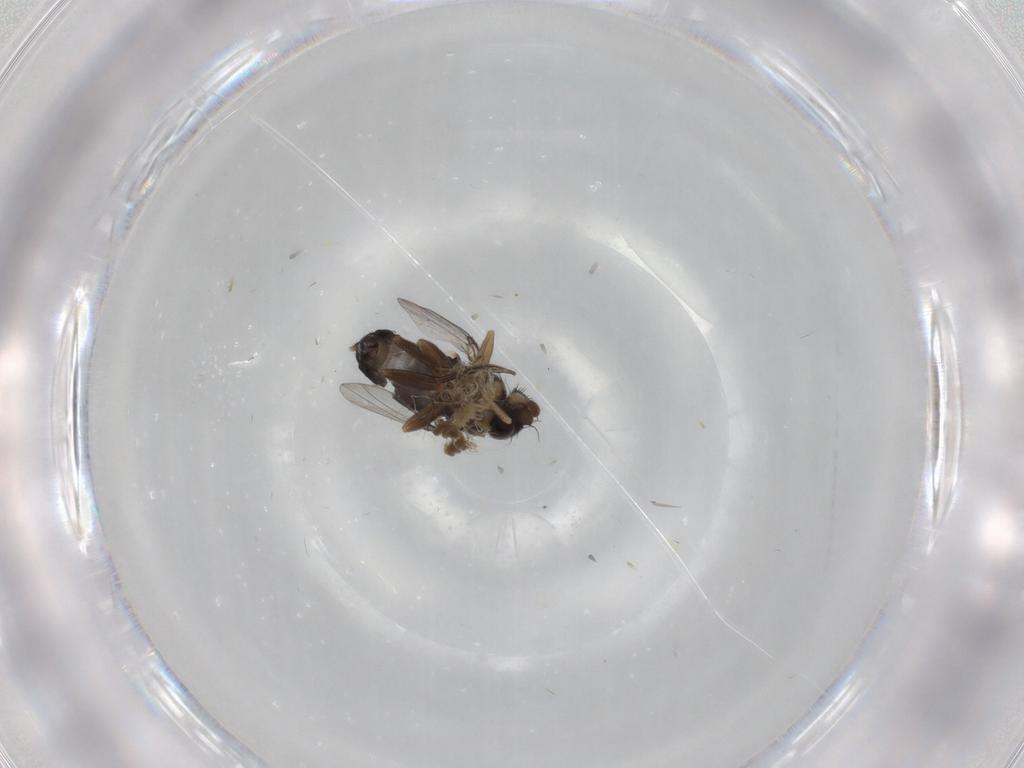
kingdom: Animalia
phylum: Arthropoda
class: Insecta
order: Diptera
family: Phoridae
